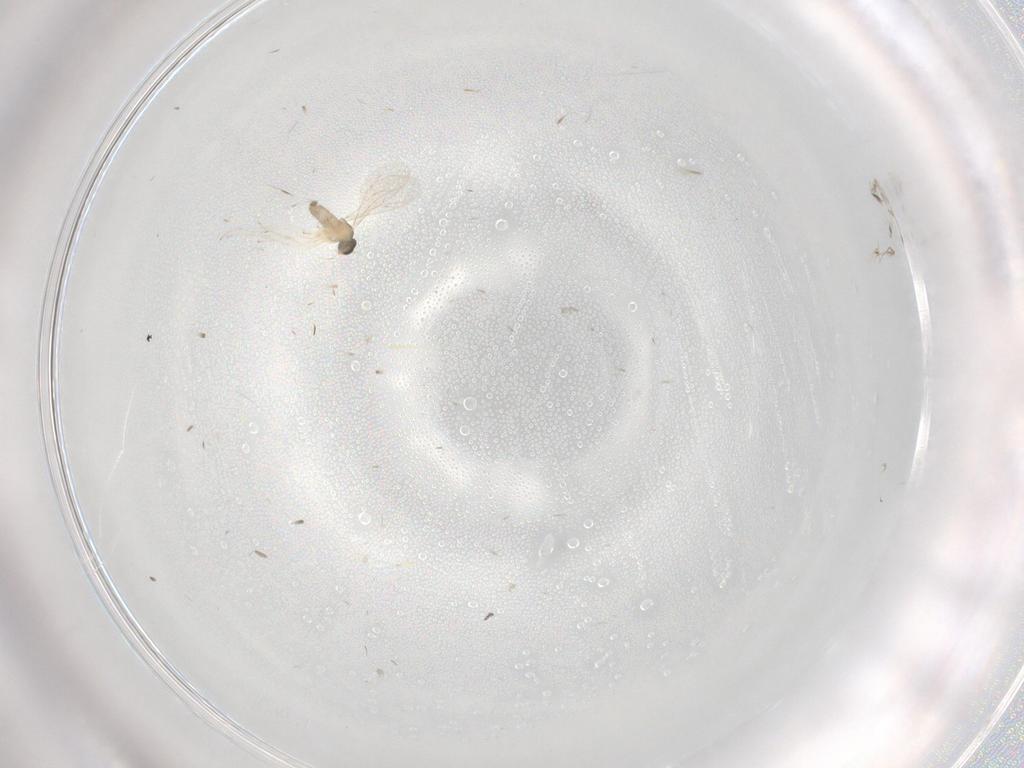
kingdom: Animalia
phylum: Arthropoda
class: Insecta
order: Diptera
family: Cecidomyiidae
